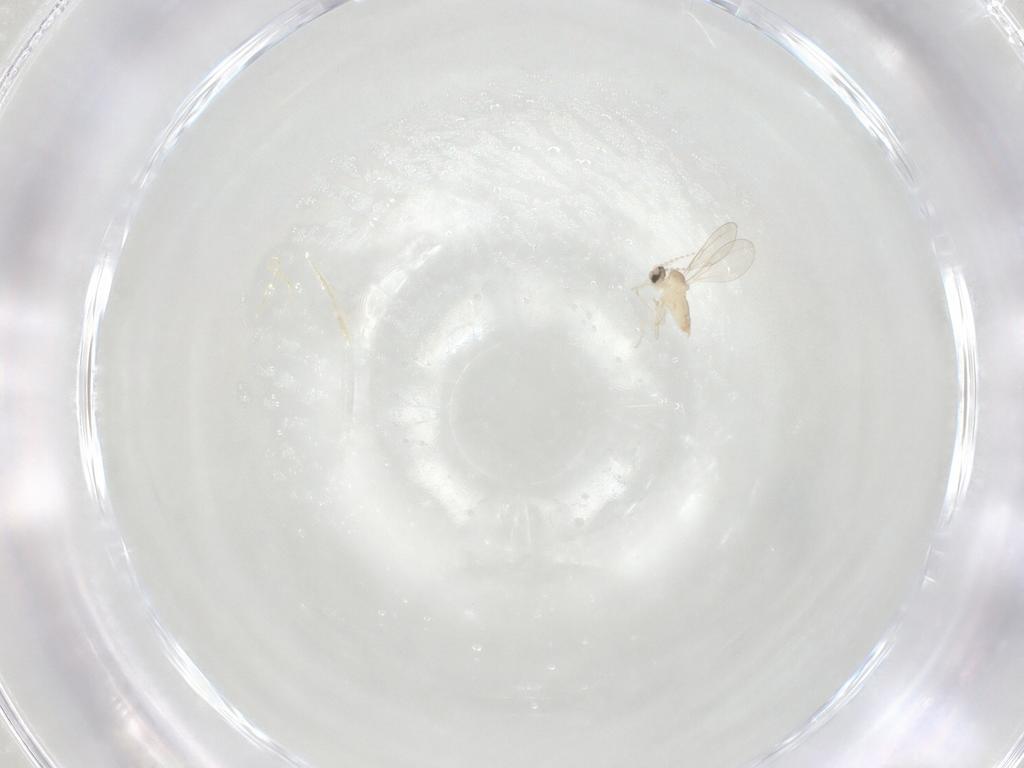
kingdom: Animalia
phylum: Arthropoda
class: Insecta
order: Diptera
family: Cecidomyiidae
